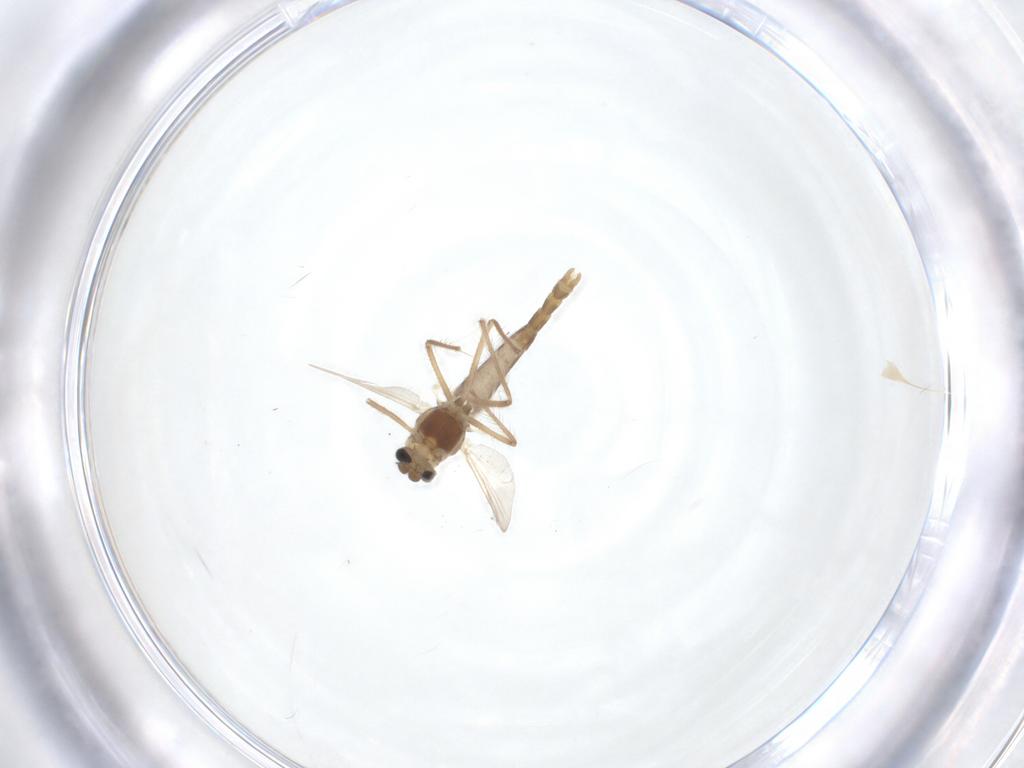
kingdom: Animalia
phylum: Arthropoda
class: Insecta
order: Diptera
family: Chironomidae
